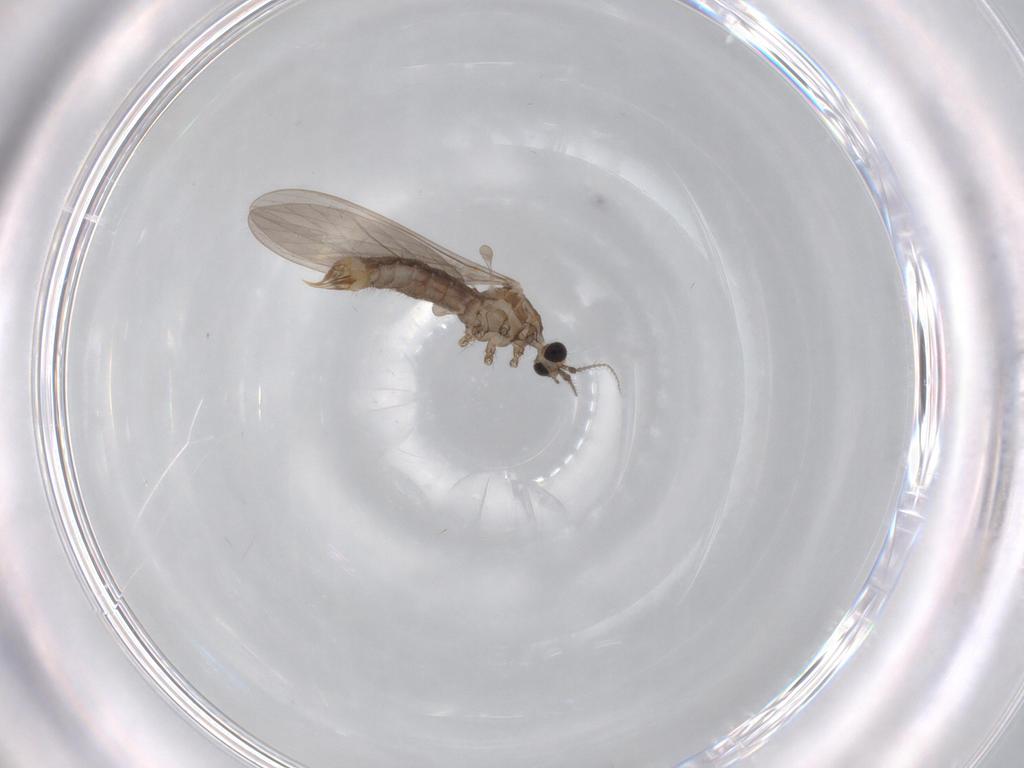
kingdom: Animalia
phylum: Arthropoda
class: Insecta
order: Diptera
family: Limoniidae
